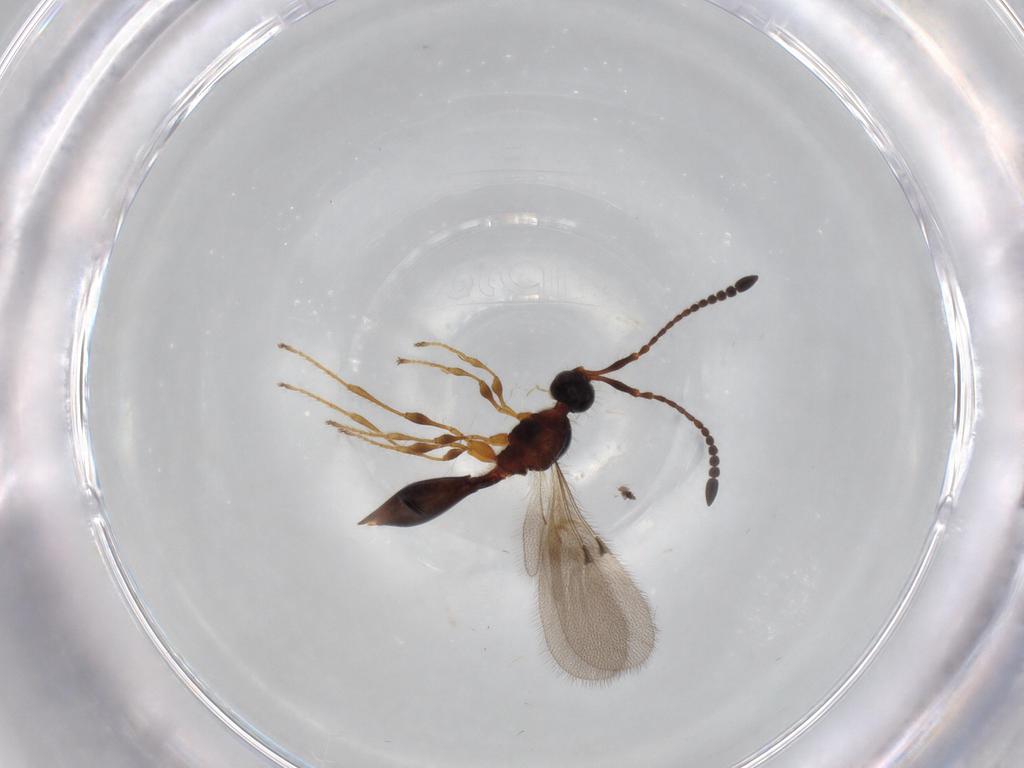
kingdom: Animalia
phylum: Arthropoda
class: Insecta
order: Hymenoptera
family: Diapriidae
